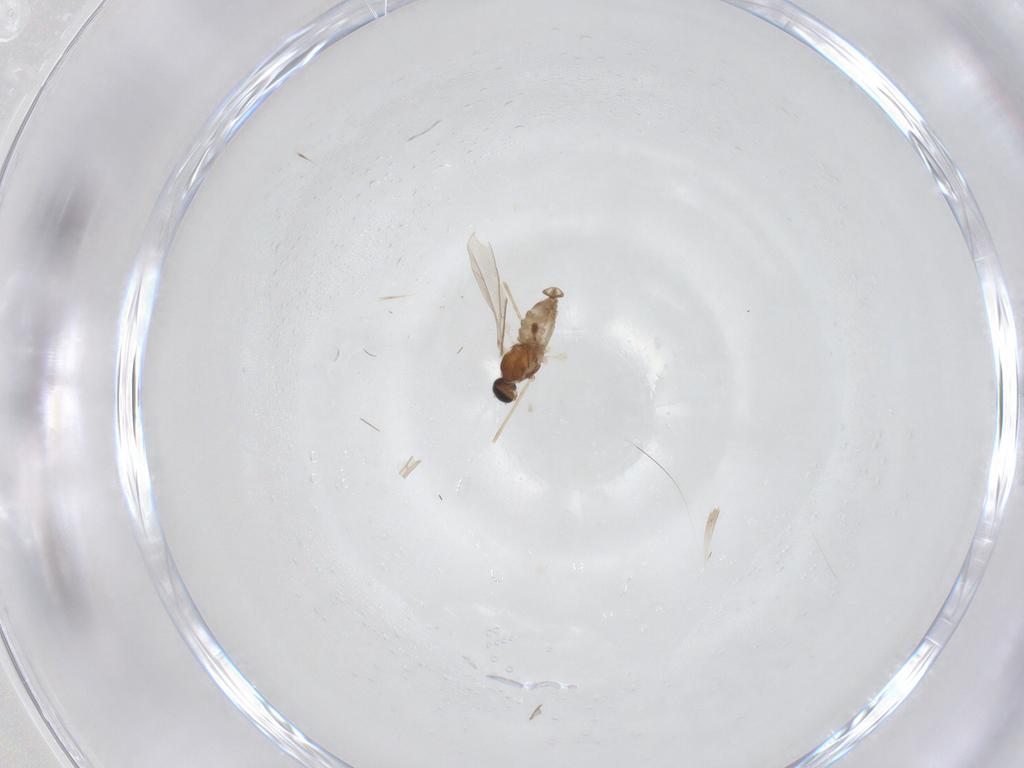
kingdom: Animalia
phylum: Arthropoda
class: Insecta
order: Diptera
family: Cecidomyiidae
